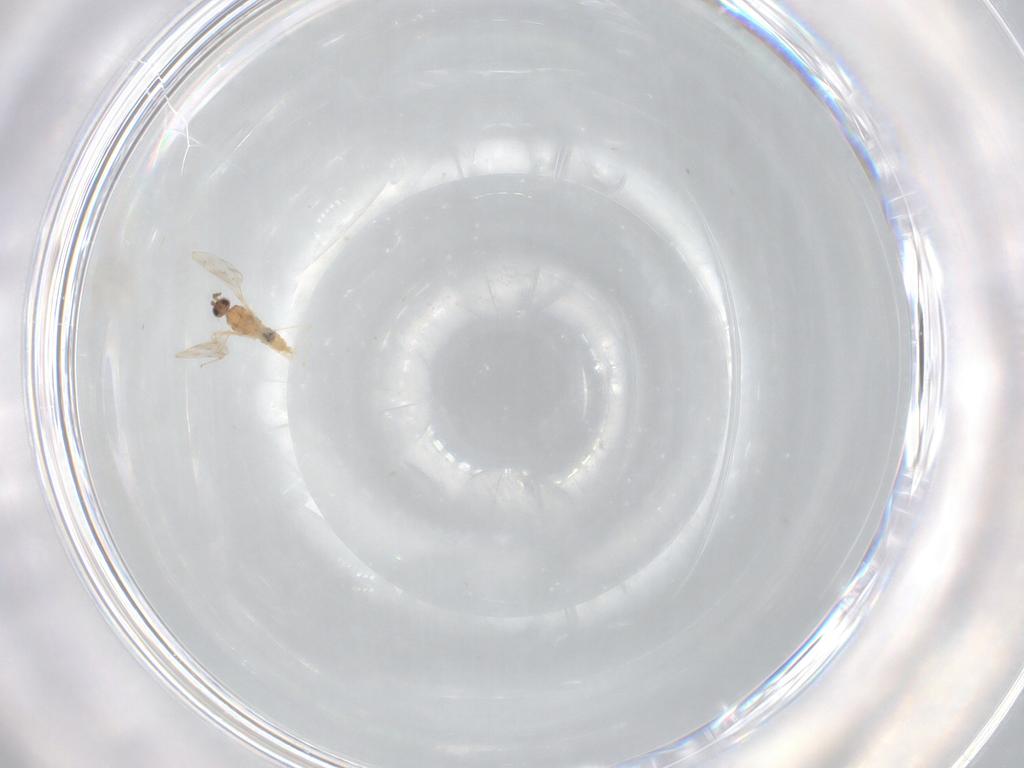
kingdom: Animalia
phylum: Arthropoda
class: Insecta
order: Diptera
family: Cecidomyiidae
